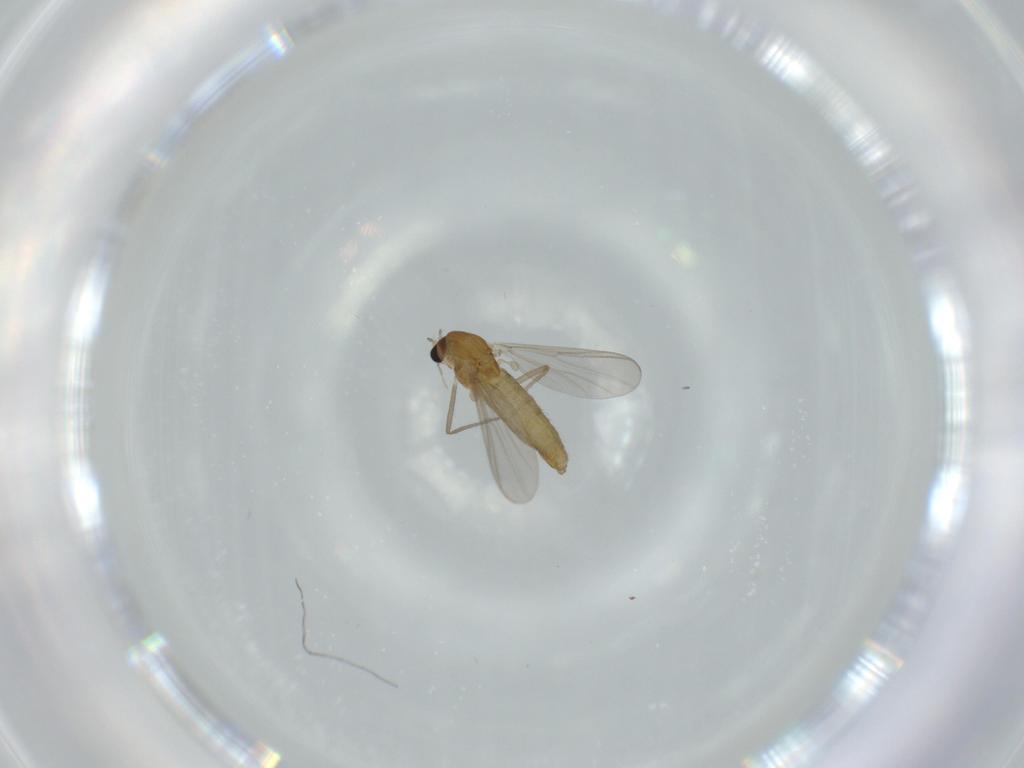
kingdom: Animalia
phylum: Arthropoda
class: Insecta
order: Diptera
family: Chironomidae
